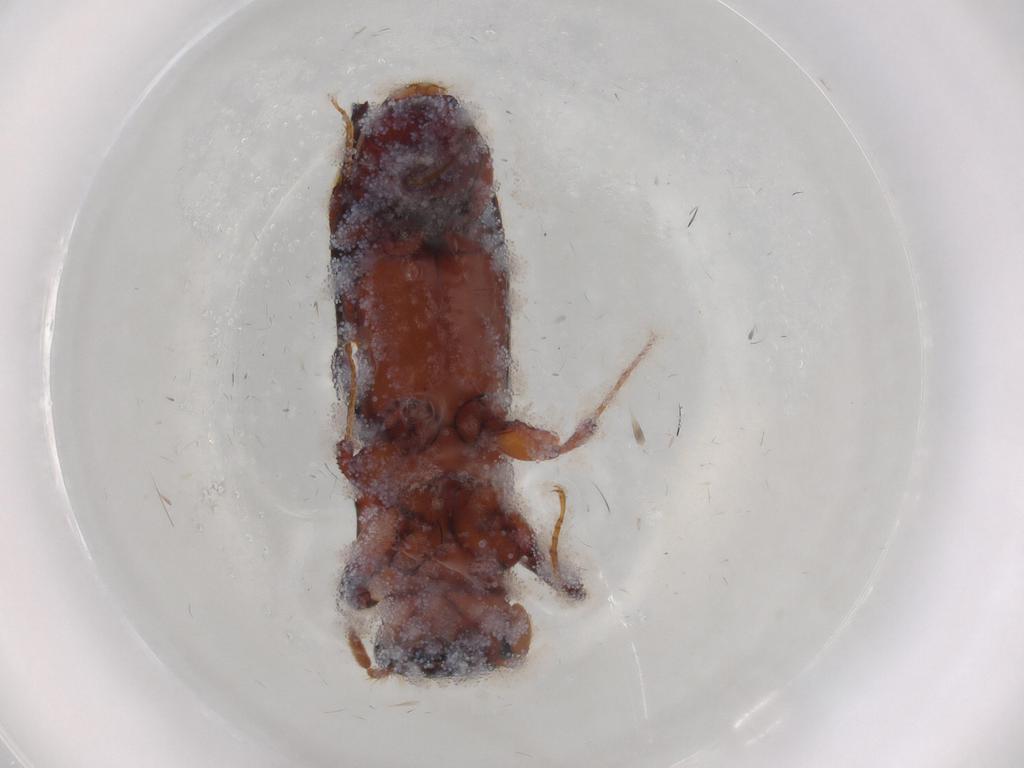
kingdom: Animalia
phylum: Arthropoda
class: Insecta
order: Coleoptera
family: Curculionidae
